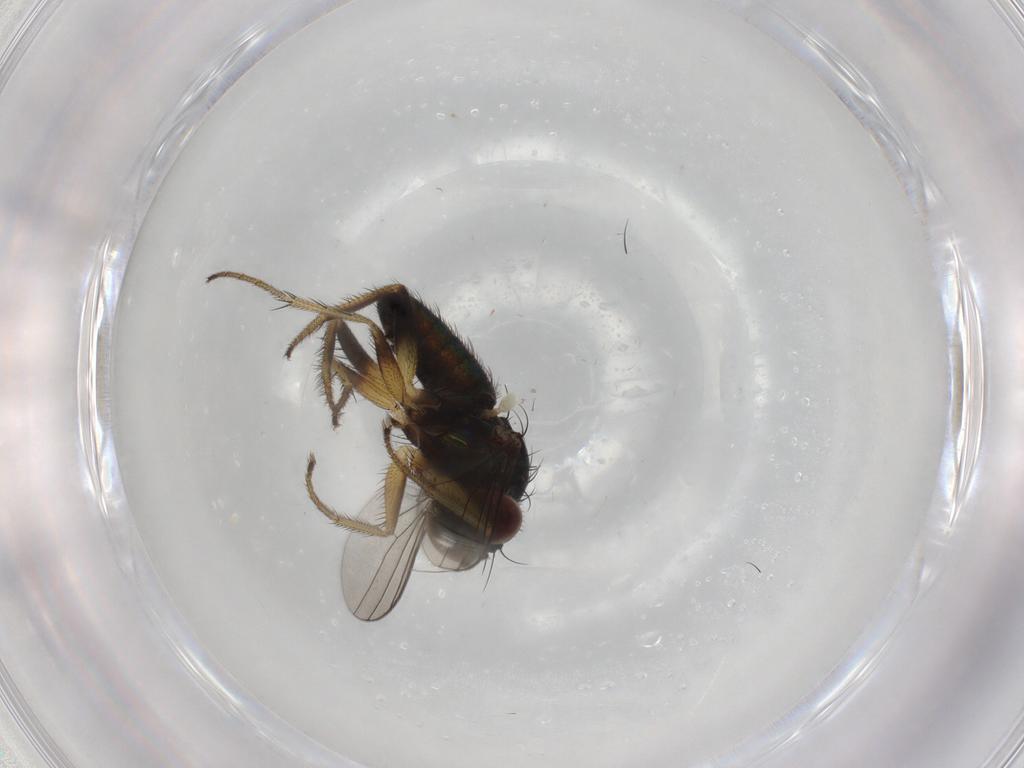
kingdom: Animalia
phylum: Arthropoda
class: Insecta
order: Diptera
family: Dolichopodidae
